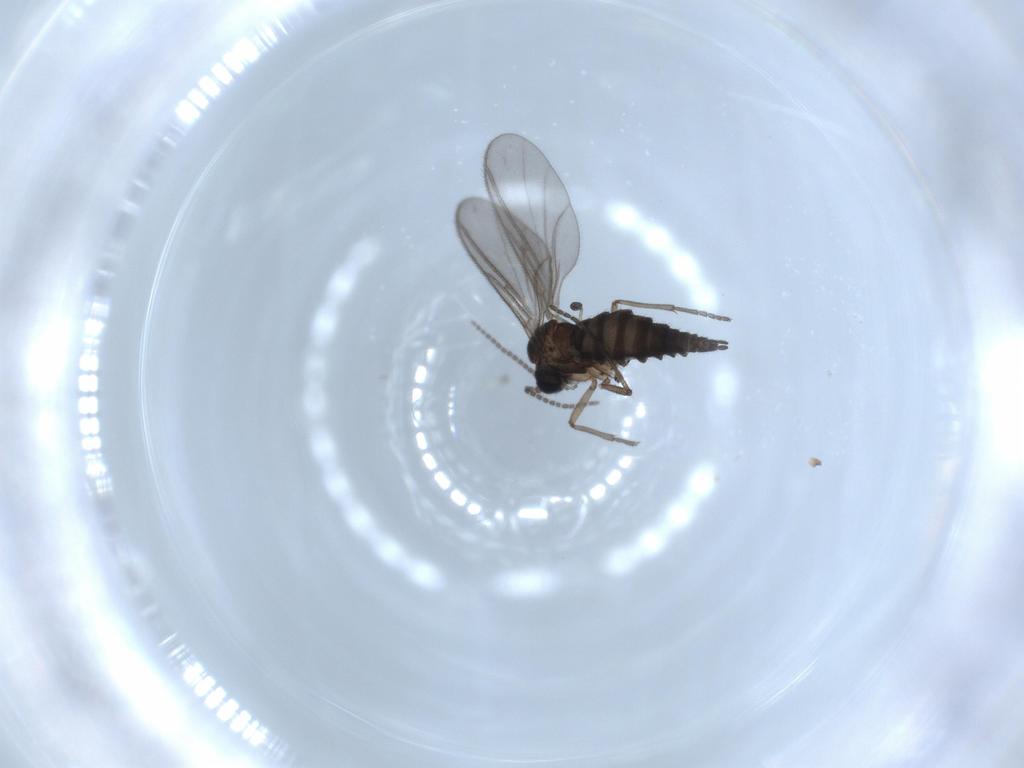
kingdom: Animalia
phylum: Arthropoda
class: Insecta
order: Diptera
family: Sciaridae
